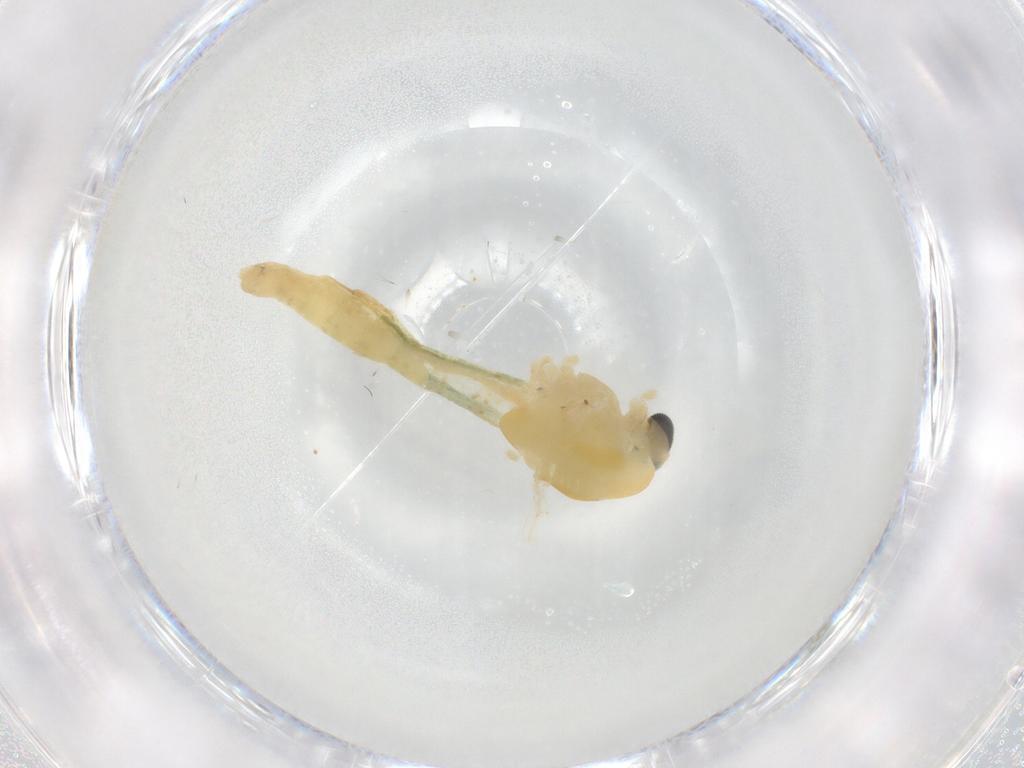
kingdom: Animalia
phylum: Arthropoda
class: Insecta
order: Diptera
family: Chironomidae
